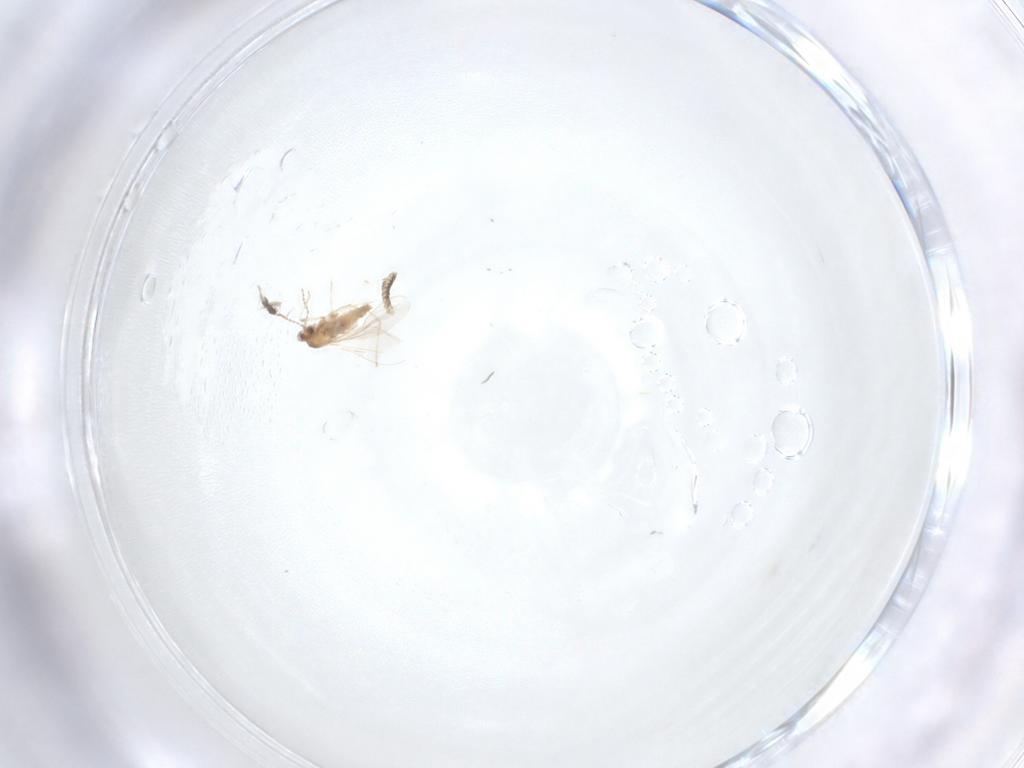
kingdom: Animalia
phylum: Arthropoda
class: Insecta
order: Diptera
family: Cecidomyiidae
